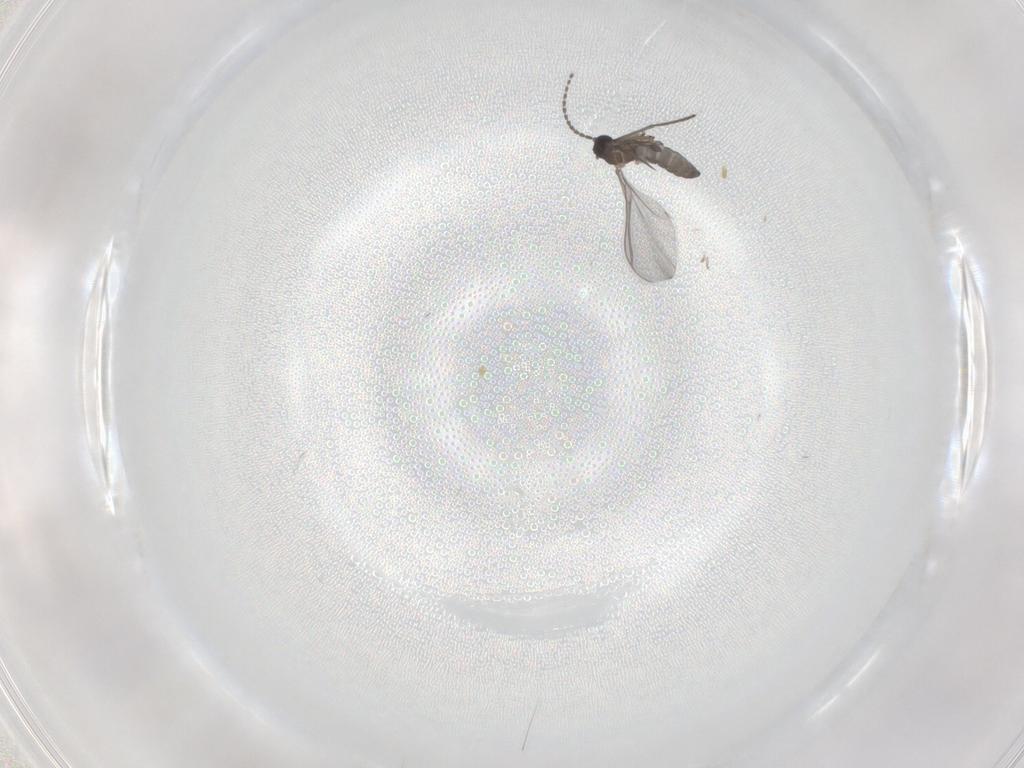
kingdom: Animalia
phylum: Arthropoda
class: Insecta
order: Diptera
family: Sciaridae
